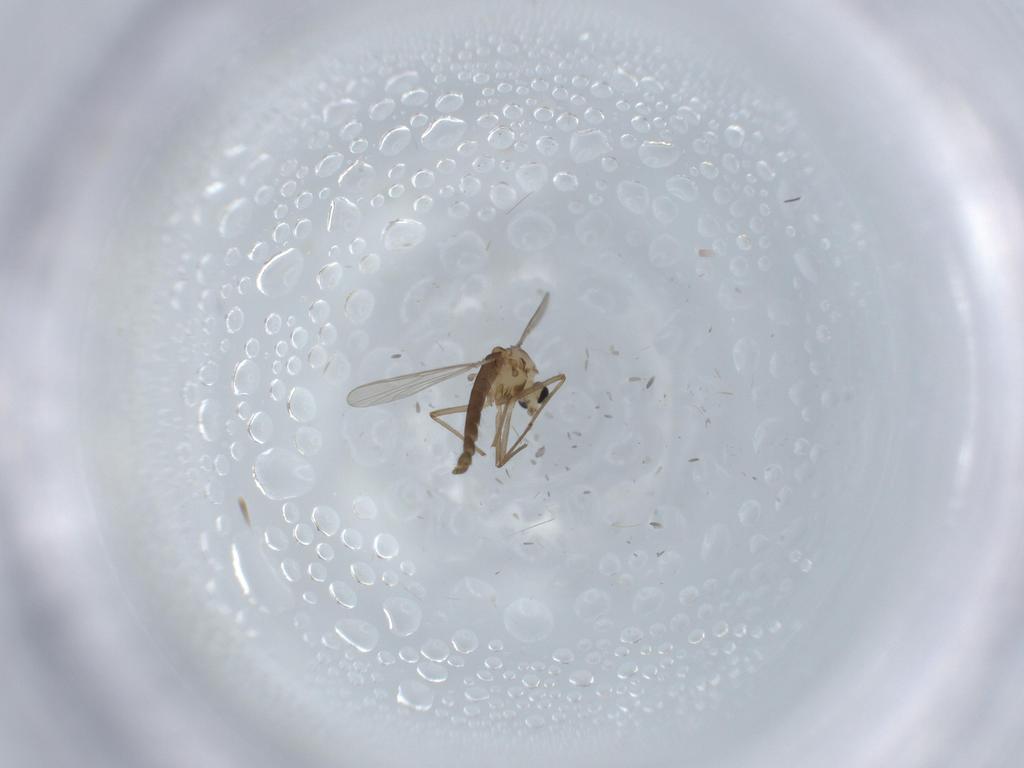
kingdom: Animalia
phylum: Arthropoda
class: Insecta
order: Diptera
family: Chironomidae
